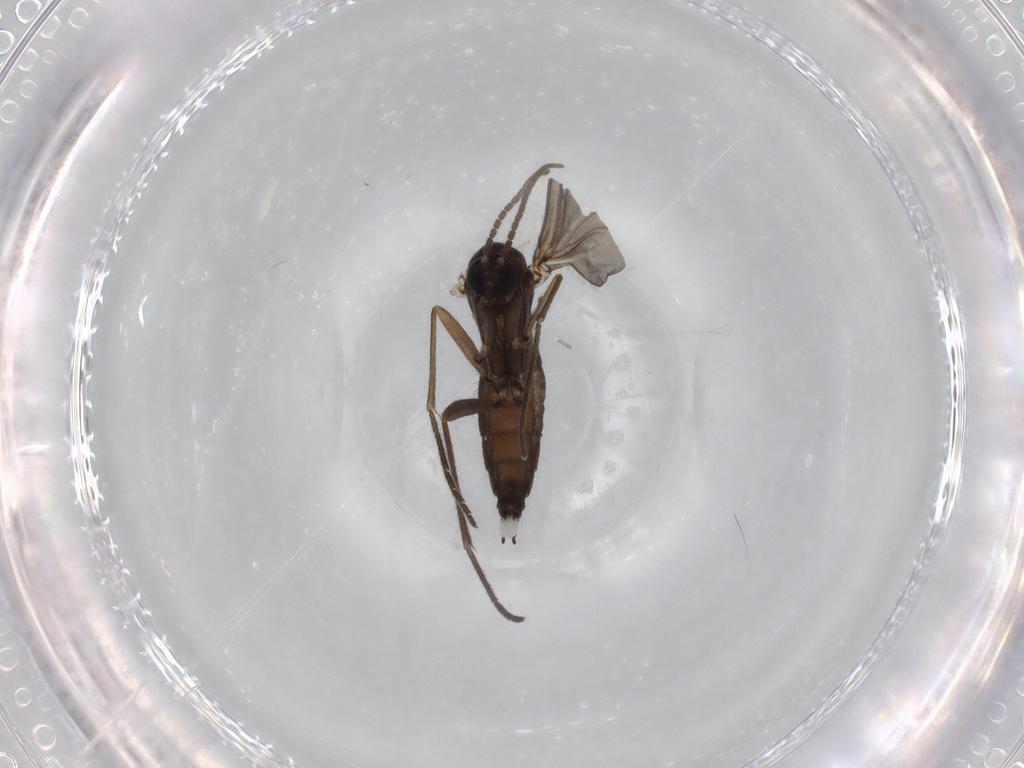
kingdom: Animalia
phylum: Arthropoda
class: Insecta
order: Diptera
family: Sciaridae
